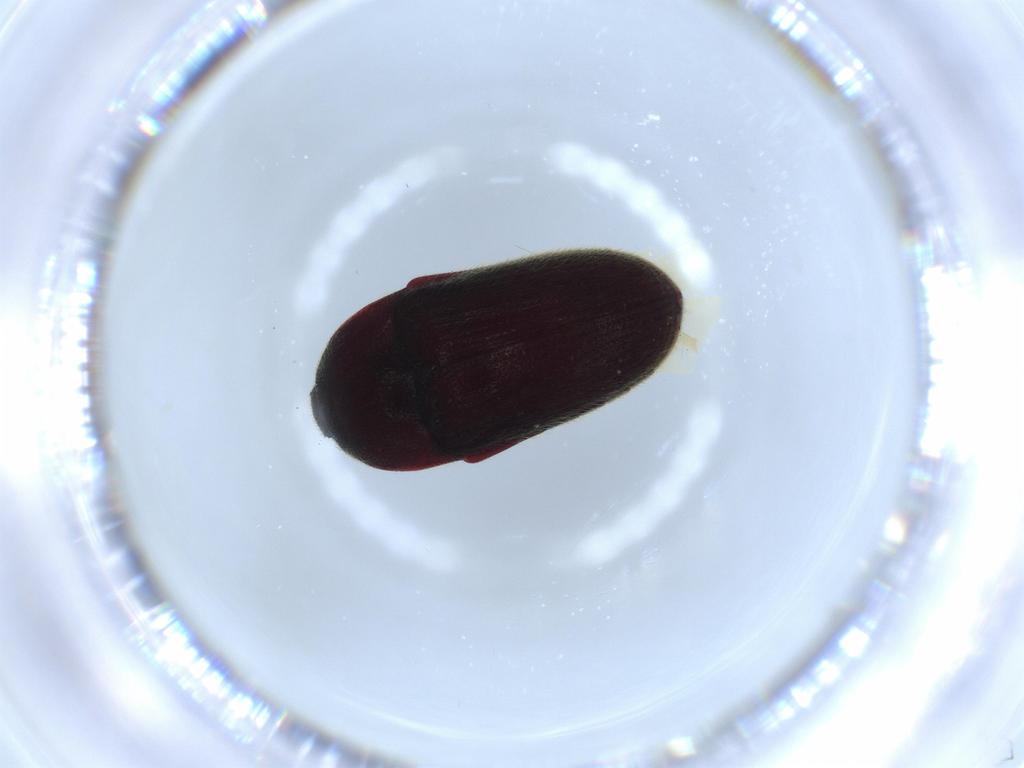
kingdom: Animalia
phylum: Arthropoda
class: Insecta
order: Coleoptera
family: Throscidae
